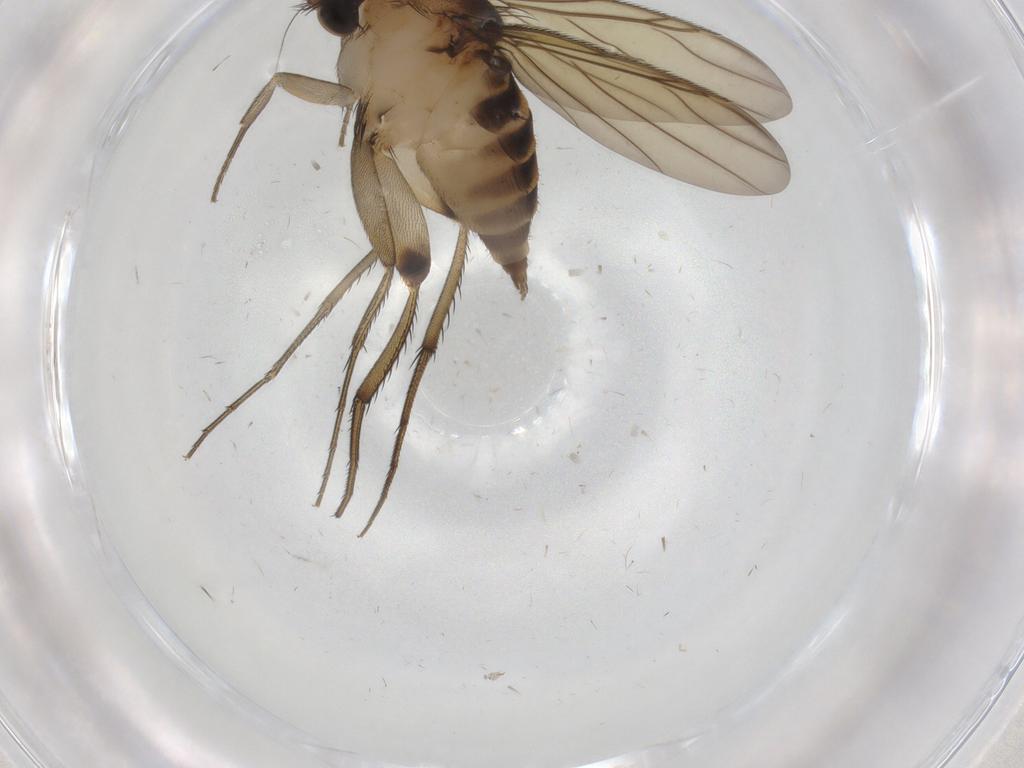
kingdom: Animalia
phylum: Arthropoda
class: Insecta
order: Diptera
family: Phoridae
